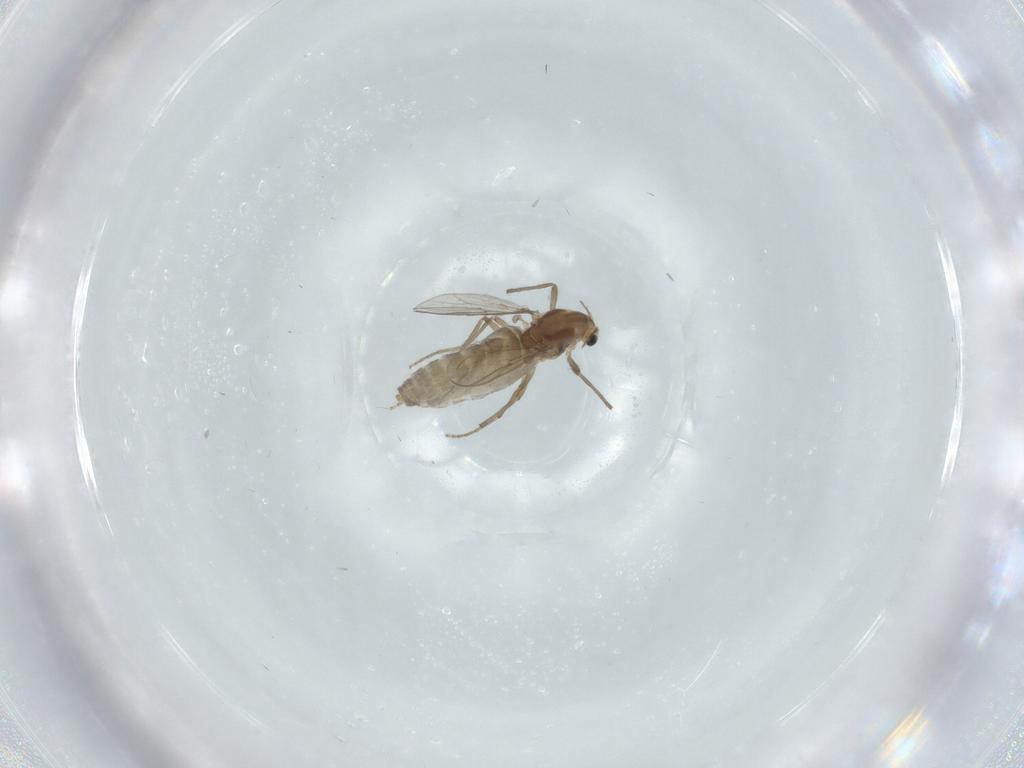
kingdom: Animalia
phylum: Arthropoda
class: Insecta
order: Diptera
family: Chironomidae
